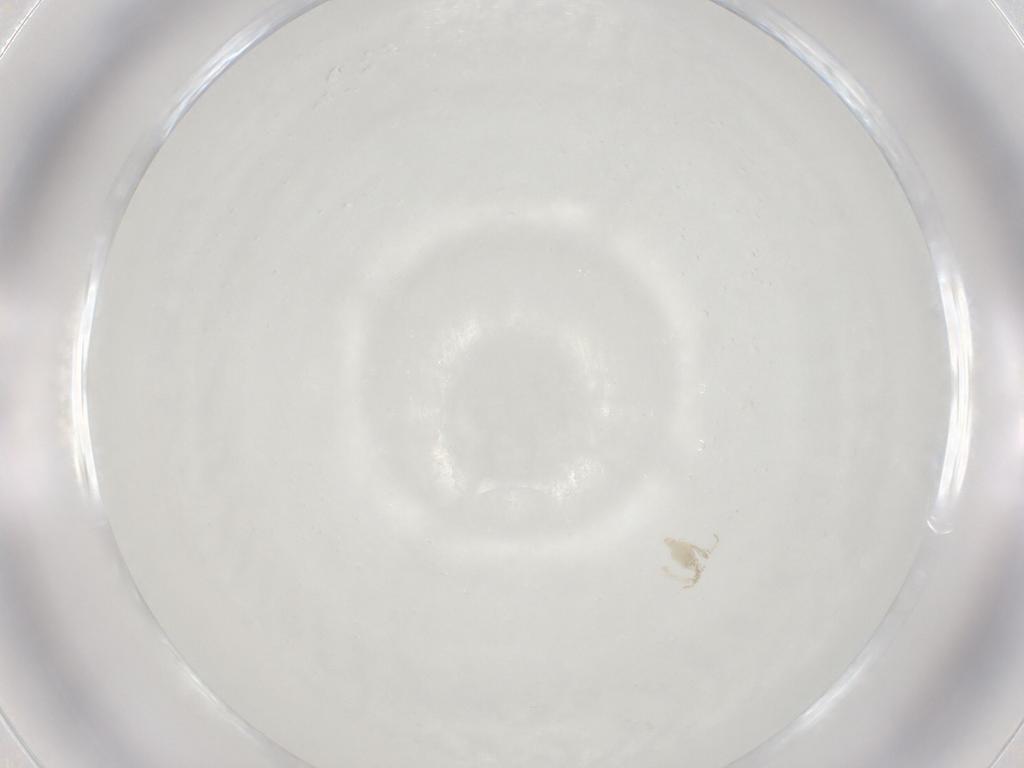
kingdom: Animalia
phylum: Arthropoda
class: Arachnida
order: Trombidiformes
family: Erythraeidae
